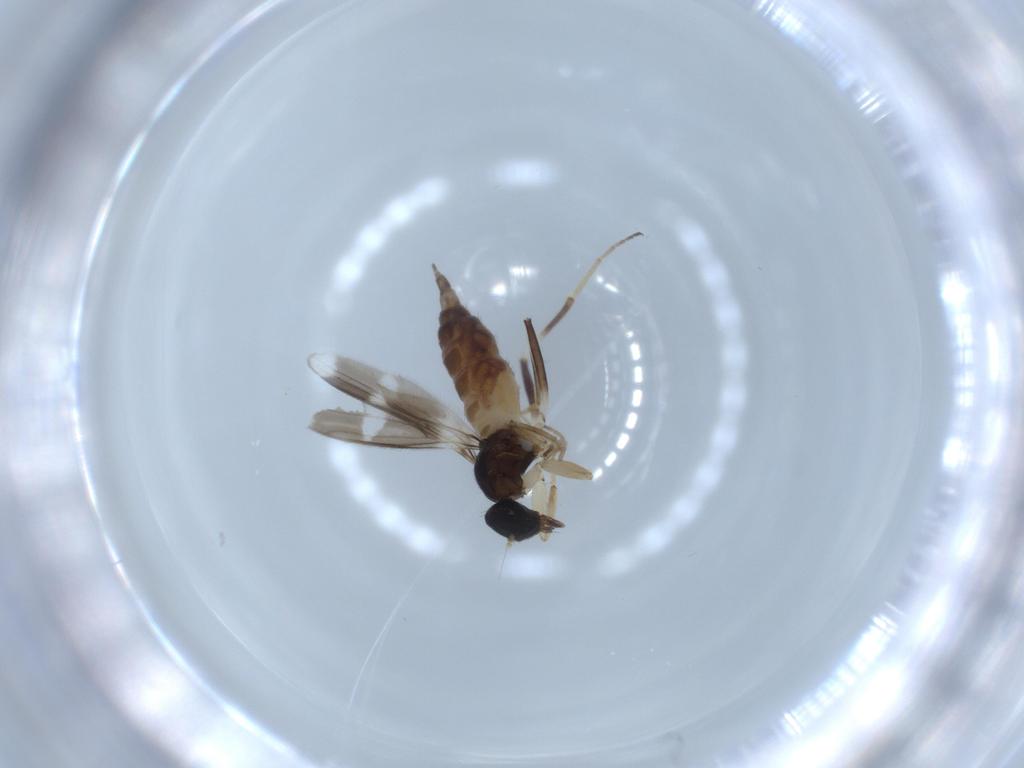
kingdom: Animalia
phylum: Arthropoda
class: Insecta
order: Diptera
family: Hybotidae
